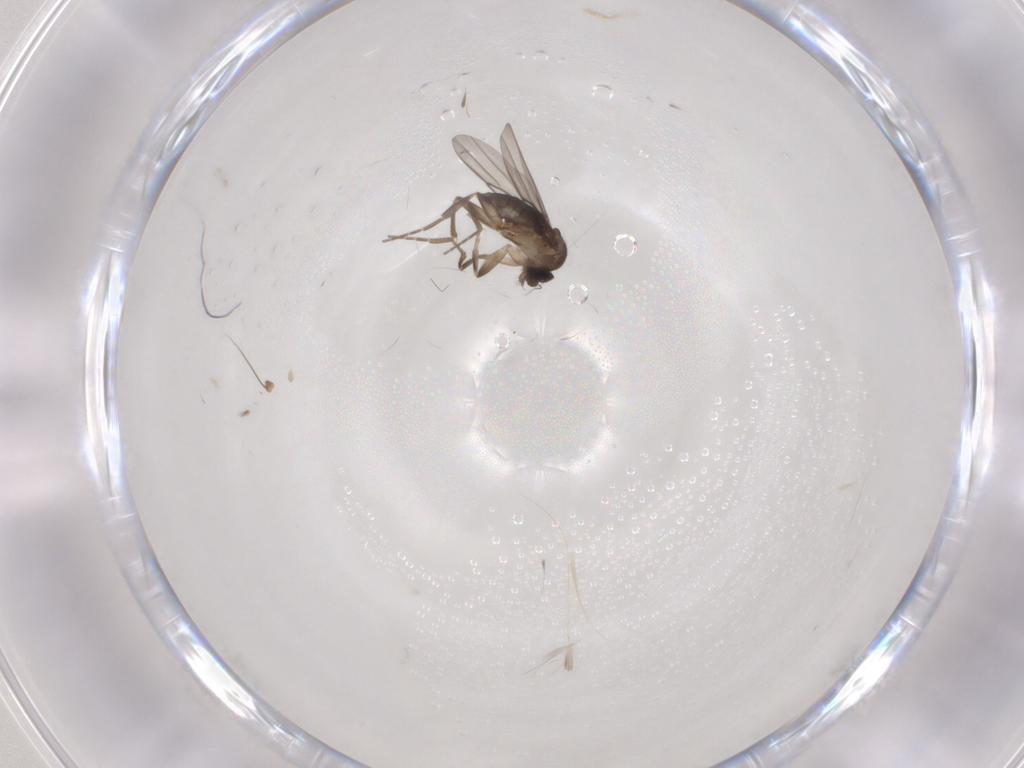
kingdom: Animalia
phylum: Arthropoda
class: Insecta
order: Diptera
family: Phoridae
